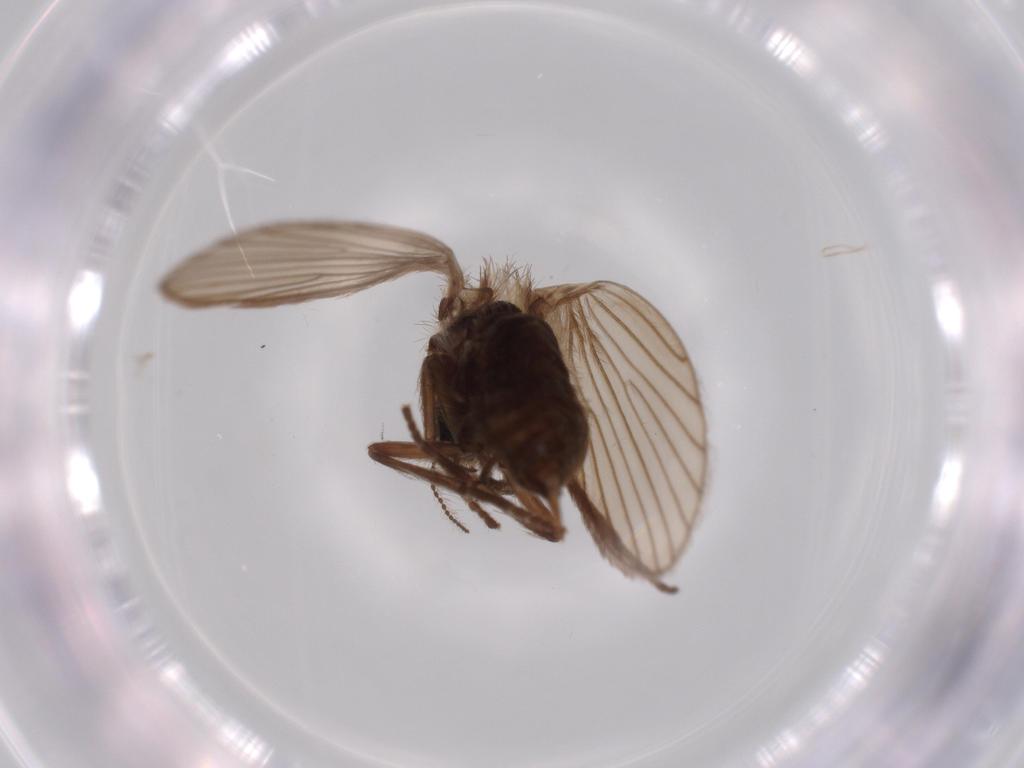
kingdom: Animalia
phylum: Arthropoda
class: Insecta
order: Diptera
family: Psychodidae
